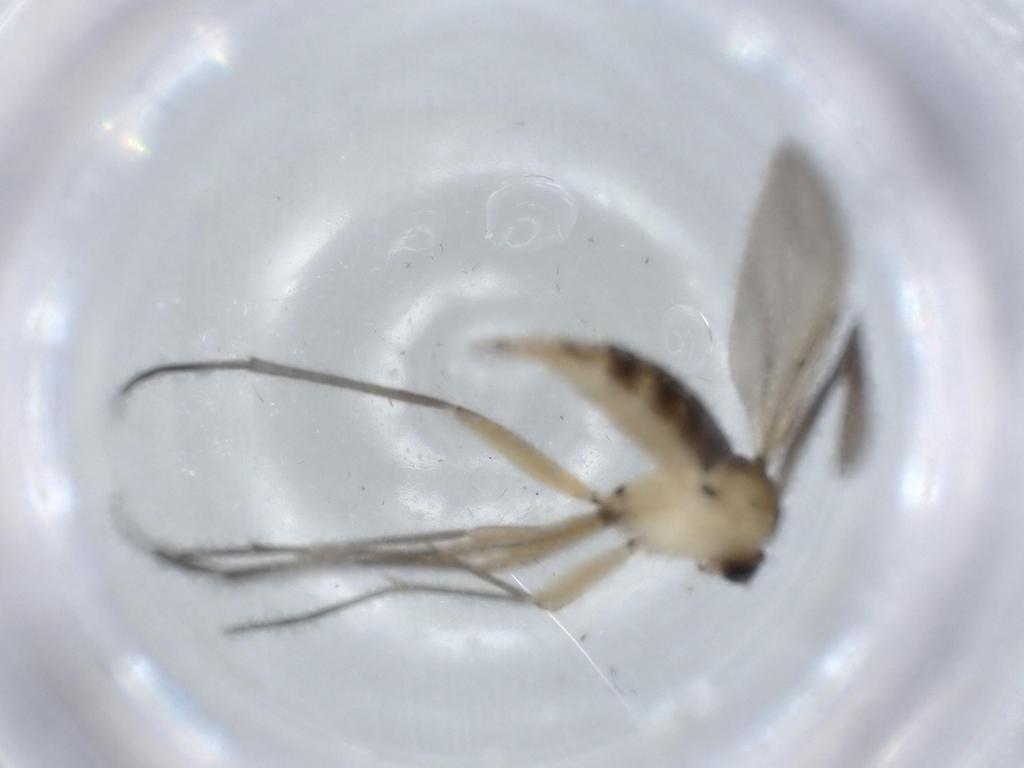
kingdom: Animalia
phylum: Arthropoda
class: Insecta
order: Diptera
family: Sciaridae
